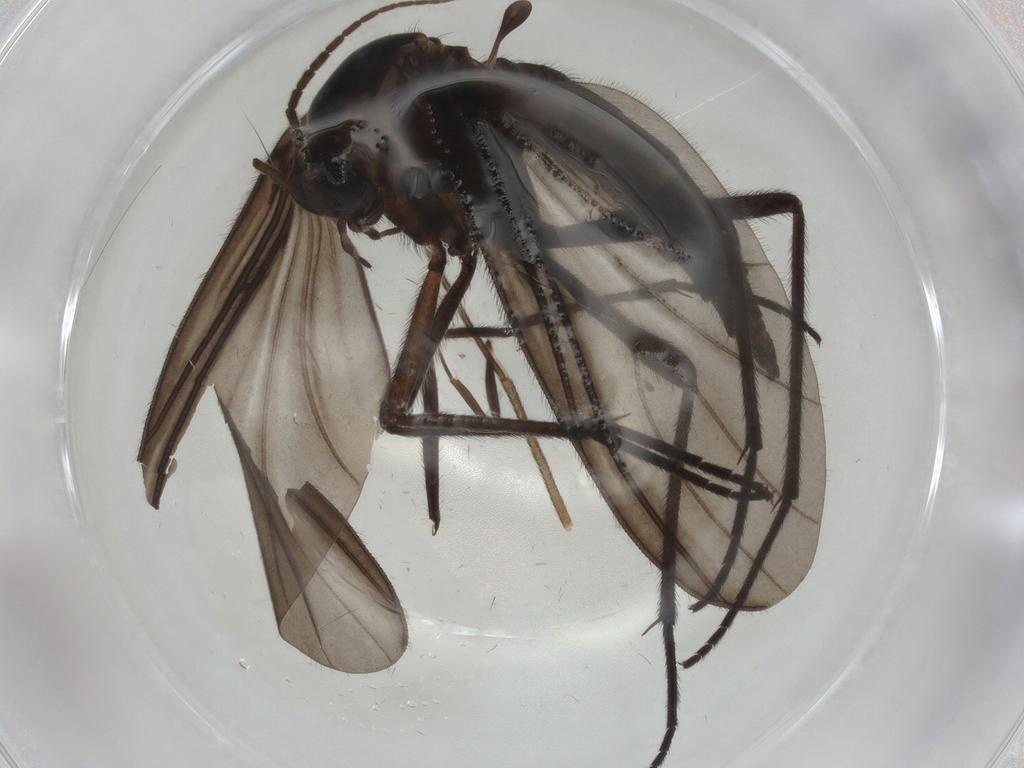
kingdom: Animalia
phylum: Arthropoda
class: Insecta
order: Diptera
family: Sciaridae
